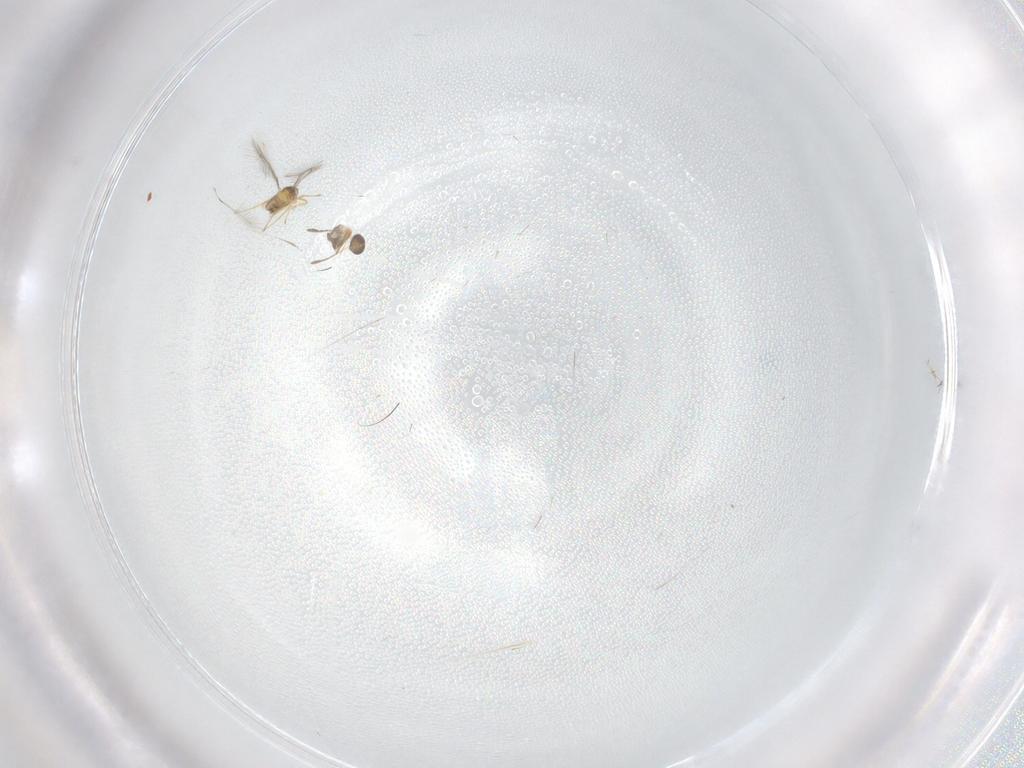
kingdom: Animalia
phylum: Arthropoda
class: Insecta
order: Hymenoptera
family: Mymaridae
